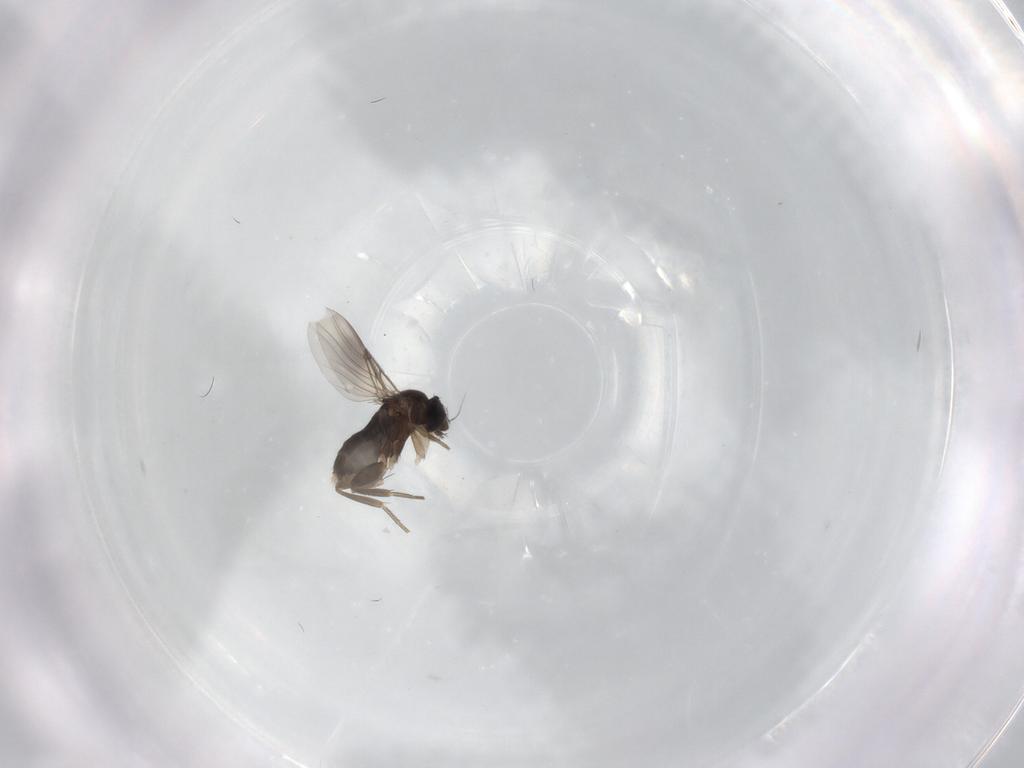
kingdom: Animalia
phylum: Arthropoda
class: Insecta
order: Diptera
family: Phoridae
